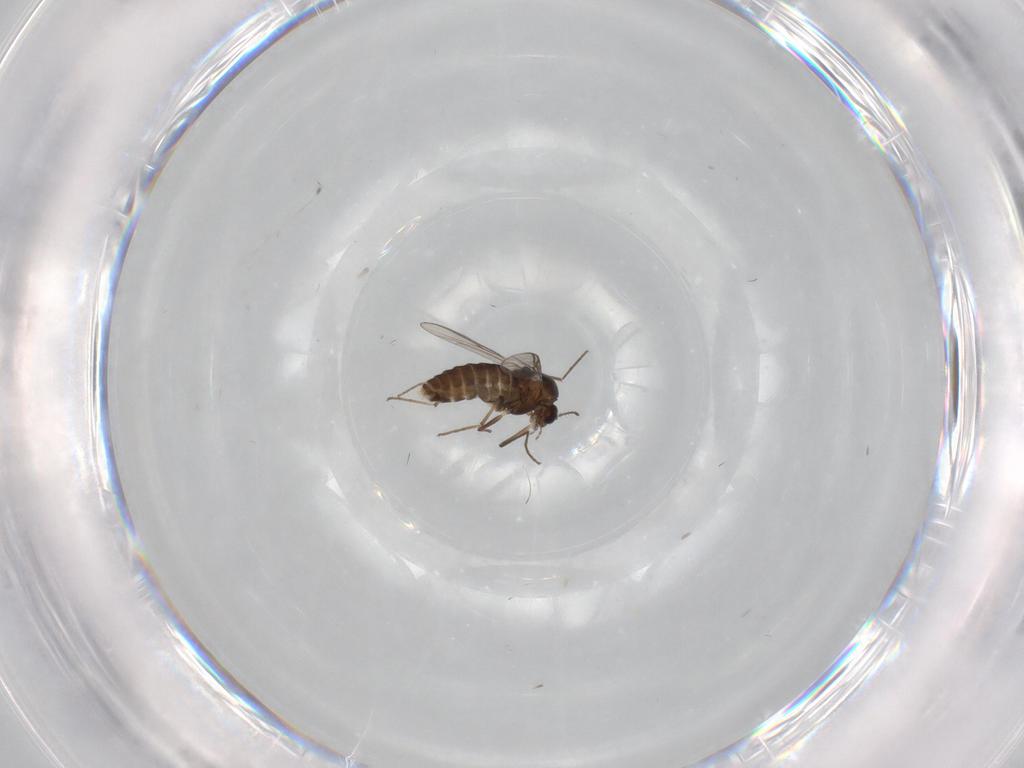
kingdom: Animalia
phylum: Arthropoda
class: Insecta
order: Diptera
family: Chironomidae
